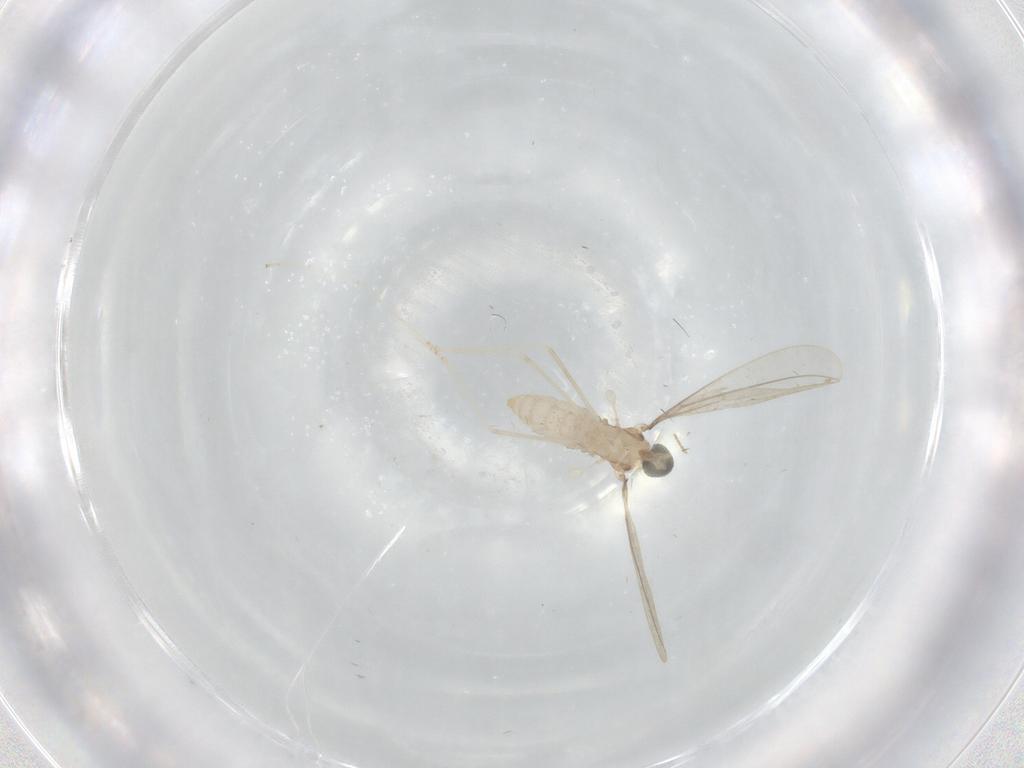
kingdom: Animalia
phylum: Arthropoda
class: Insecta
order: Diptera
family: Cecidomyiidae
